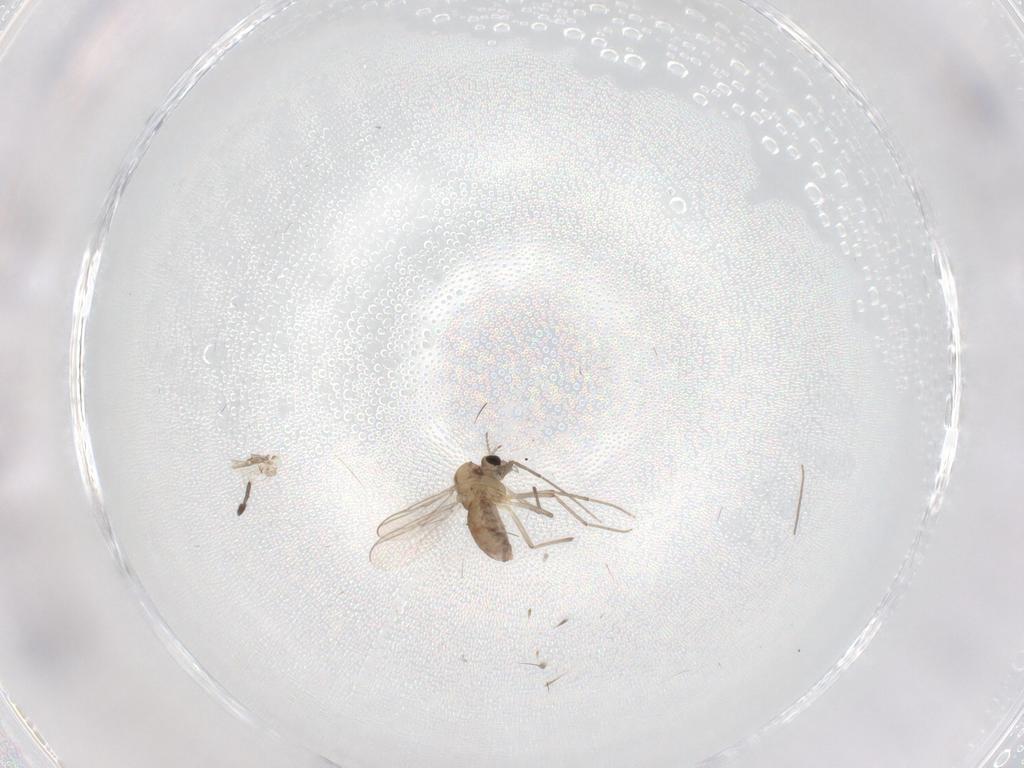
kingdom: Animalia
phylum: Arthropoda
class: Insecta
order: Diptera
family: Chironomidae
